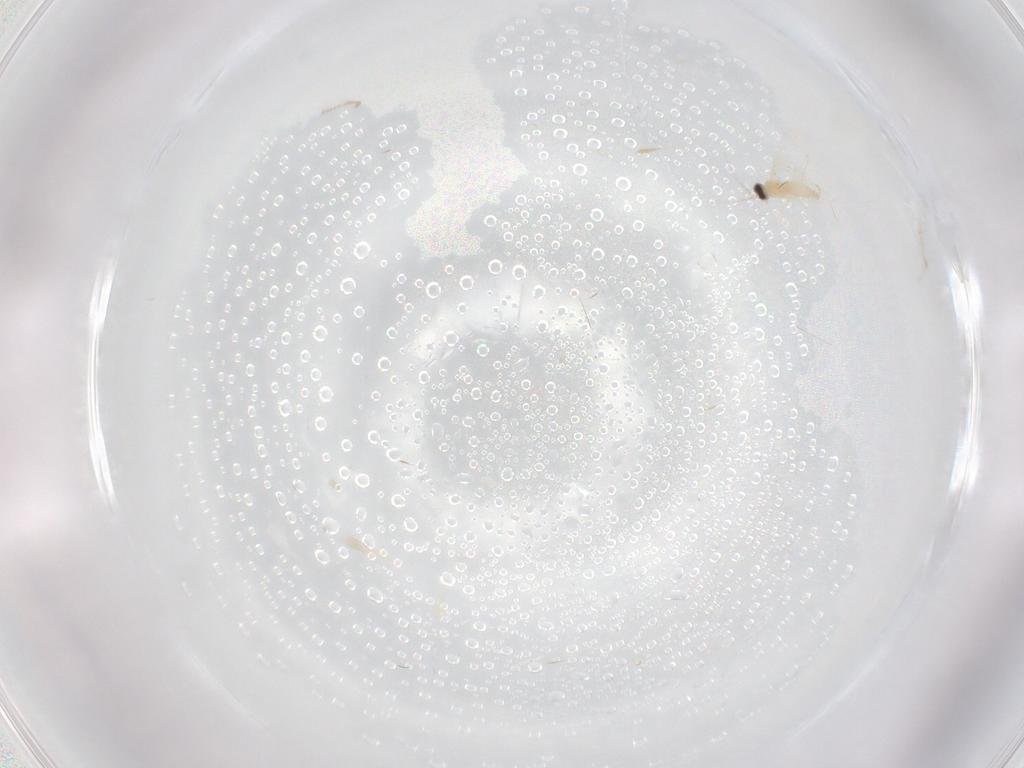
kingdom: Animalia
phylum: Arthropoda
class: Insecta
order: Diptera
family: Cecidomyiidae
